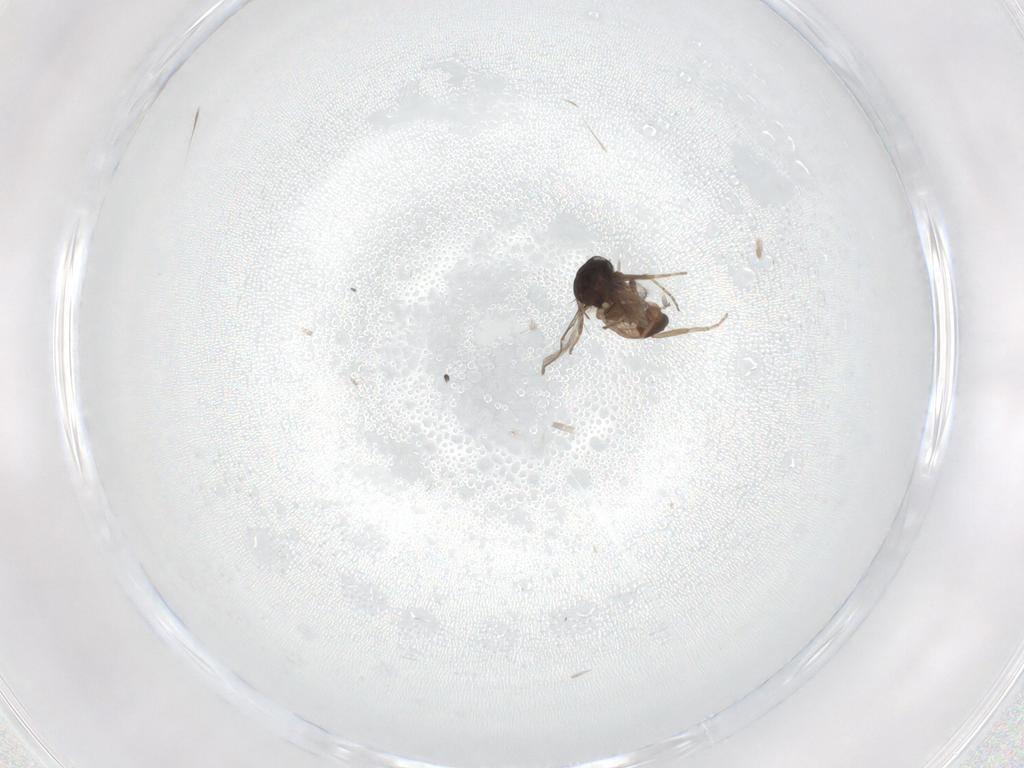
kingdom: Animalia
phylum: Arthropoda
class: Insecta
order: Diptera
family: Ceratopogonidae
